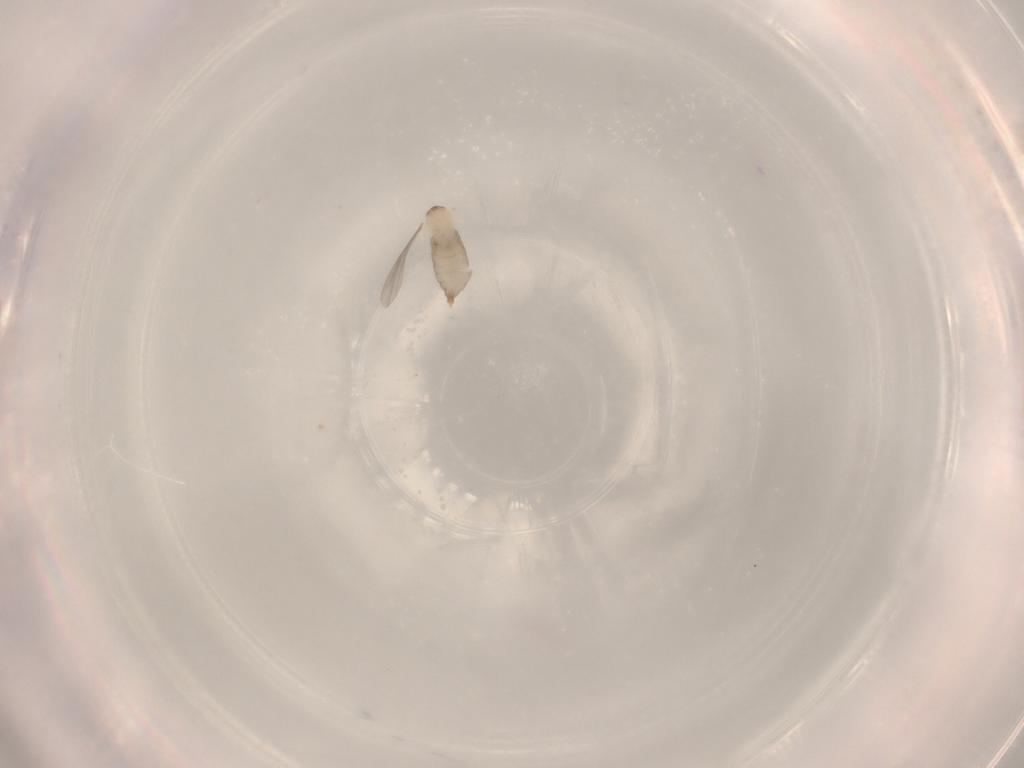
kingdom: Animalia
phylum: Arthropoda
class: Insecta
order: Diptera
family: Cecidomyiidae
